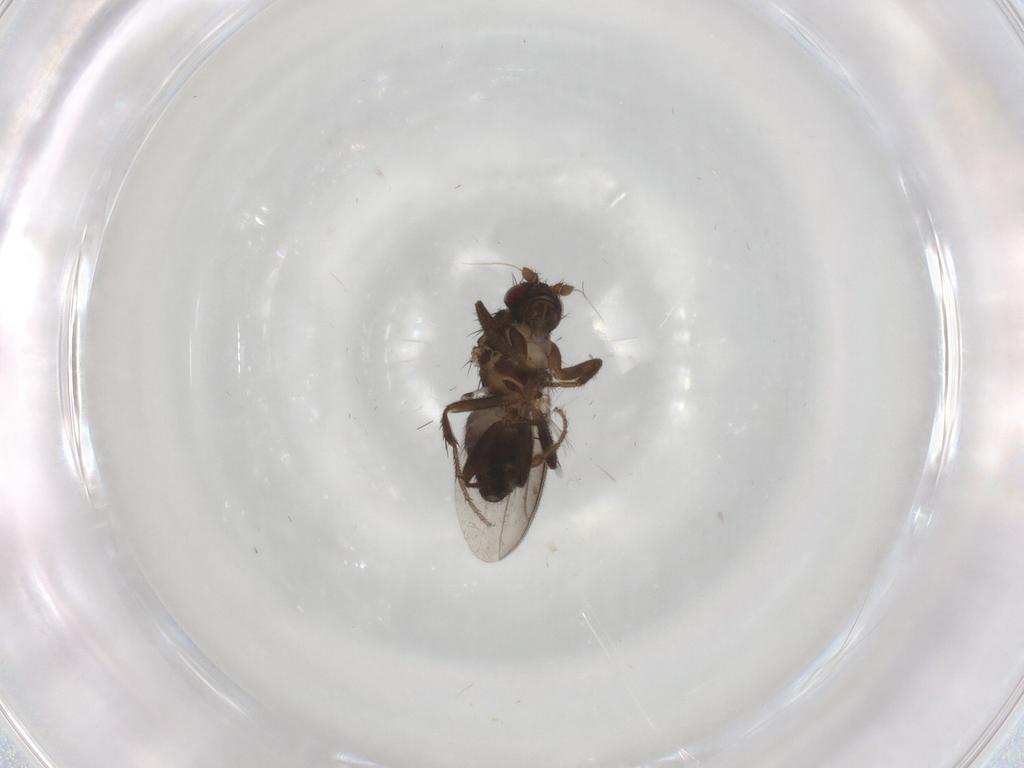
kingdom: Animalia
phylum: Arthropoda
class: Insecta
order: Diptera
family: Sphaeroceridae
